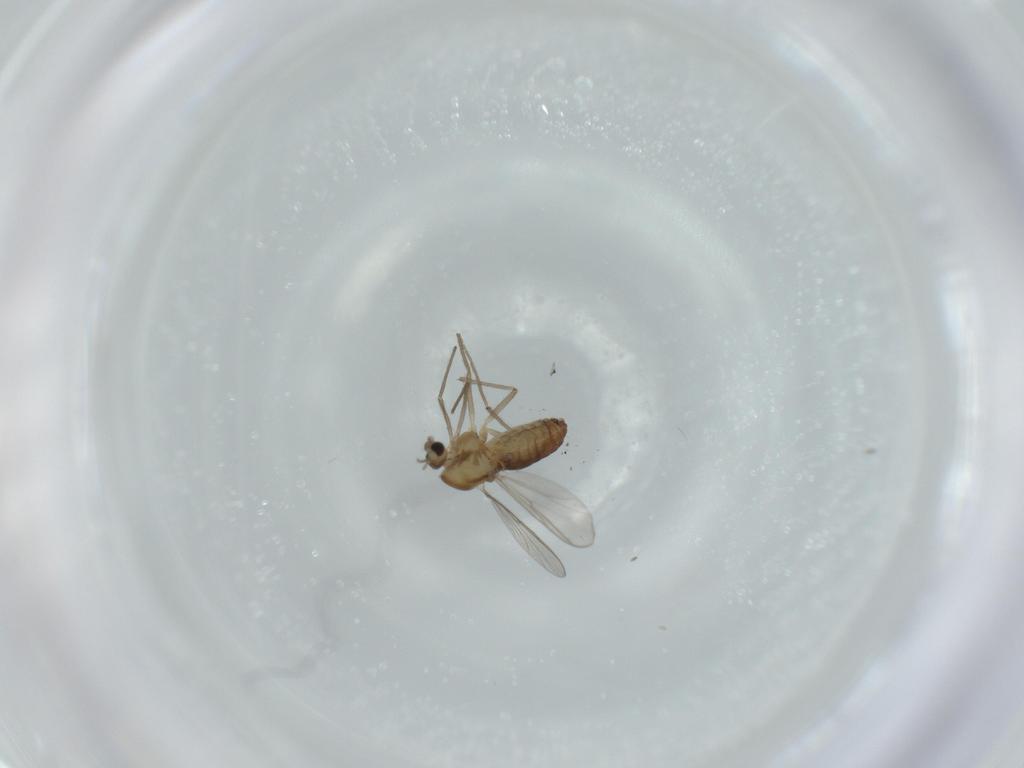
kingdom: Animalia
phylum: Arthropoda
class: Insecta
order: Diptera
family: Chironomidae
